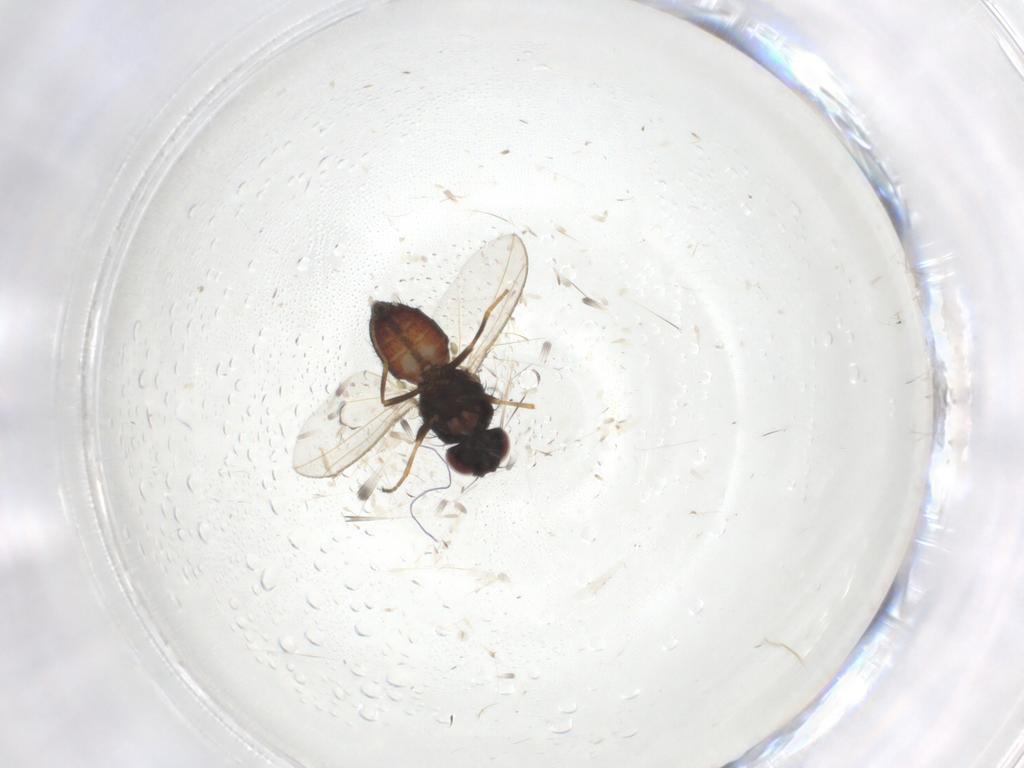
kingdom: Animalia
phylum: Arthropoda
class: Insecta
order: Diptera
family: Carnidae
